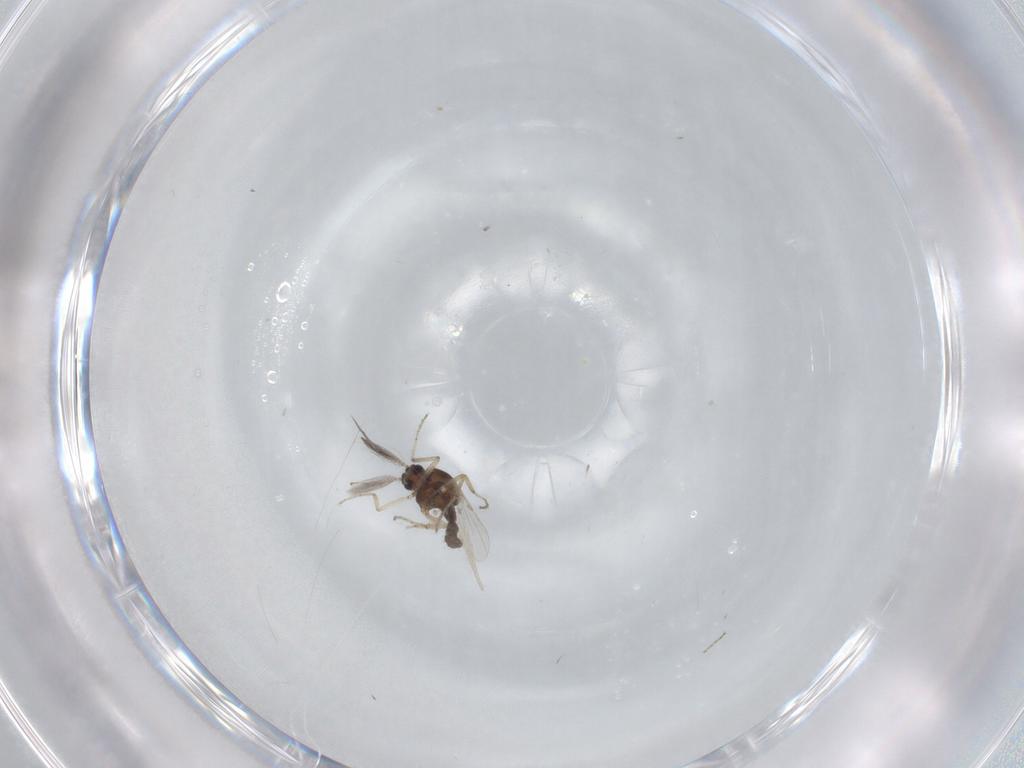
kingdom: Animalia
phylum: Arthropoda
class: Insecta
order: Diptera
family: Ceratopogonidae
